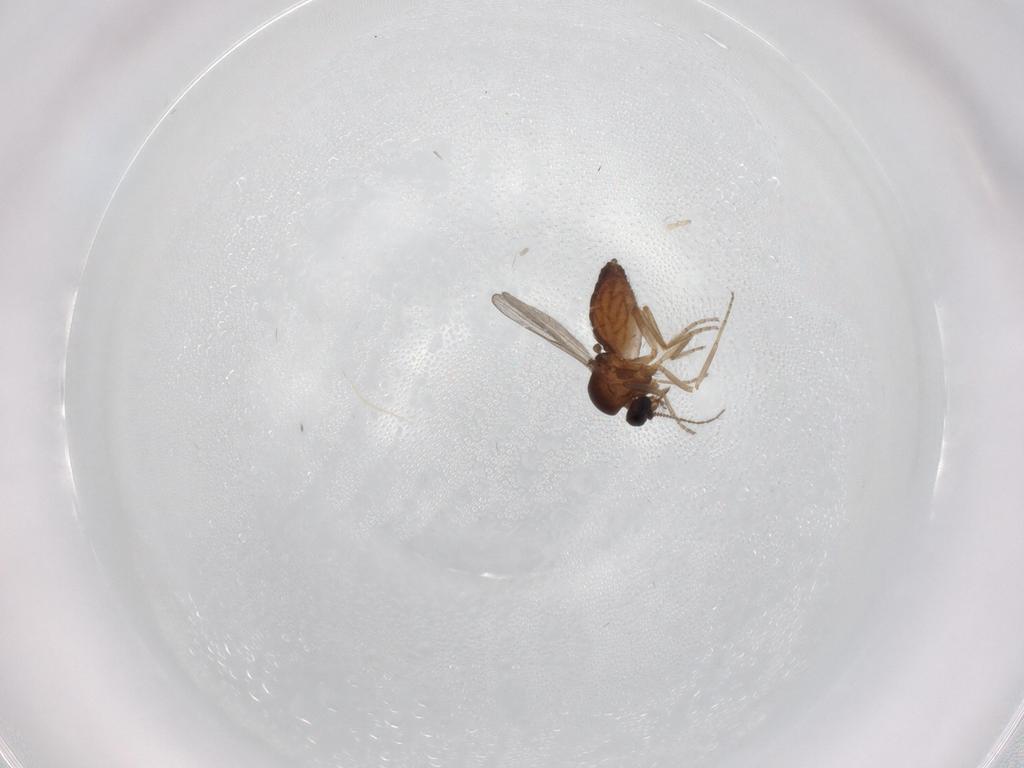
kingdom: Animalia
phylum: Arthropoda
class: Insecta
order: Diptera
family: Ceratopogonidae
